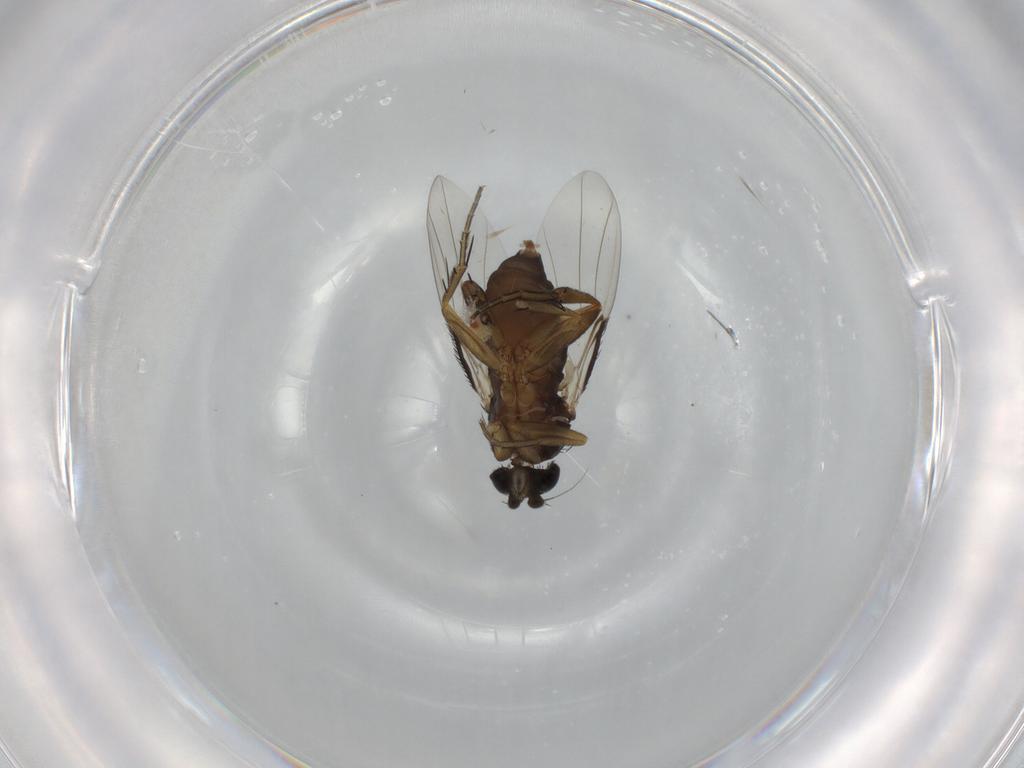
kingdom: Animalia
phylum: Arthropoda
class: Insecta
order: Diptera
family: Phoridae
